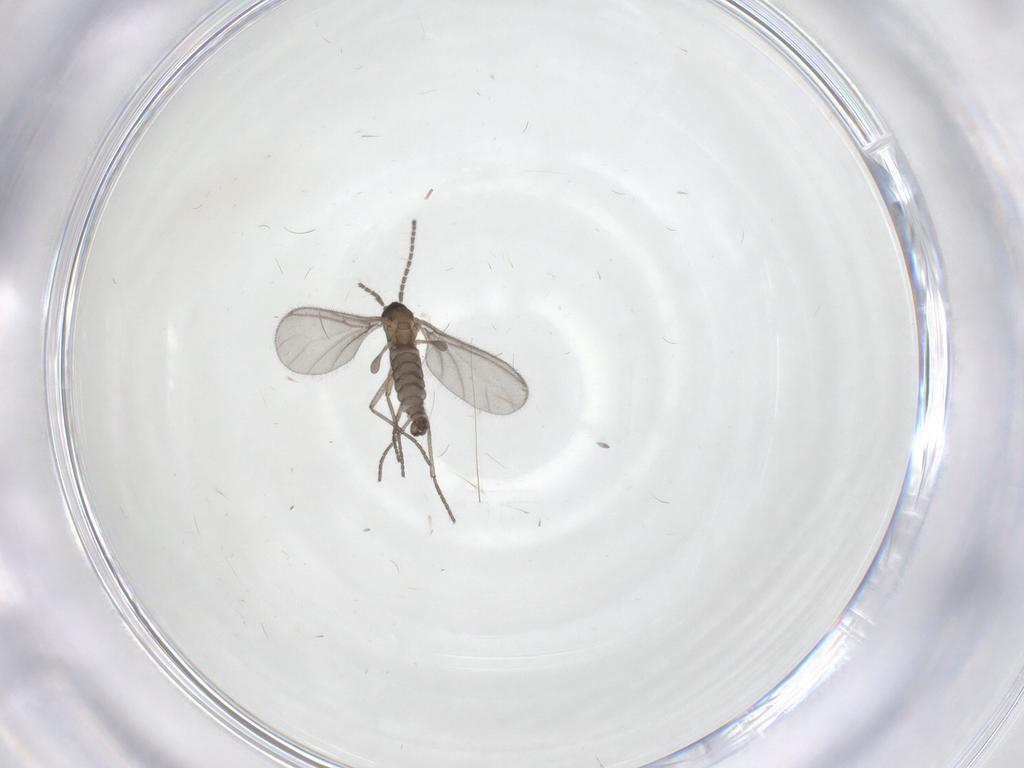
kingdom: Animalia
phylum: Arthropoda
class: Insecta
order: Diptera
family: Sciaridae
